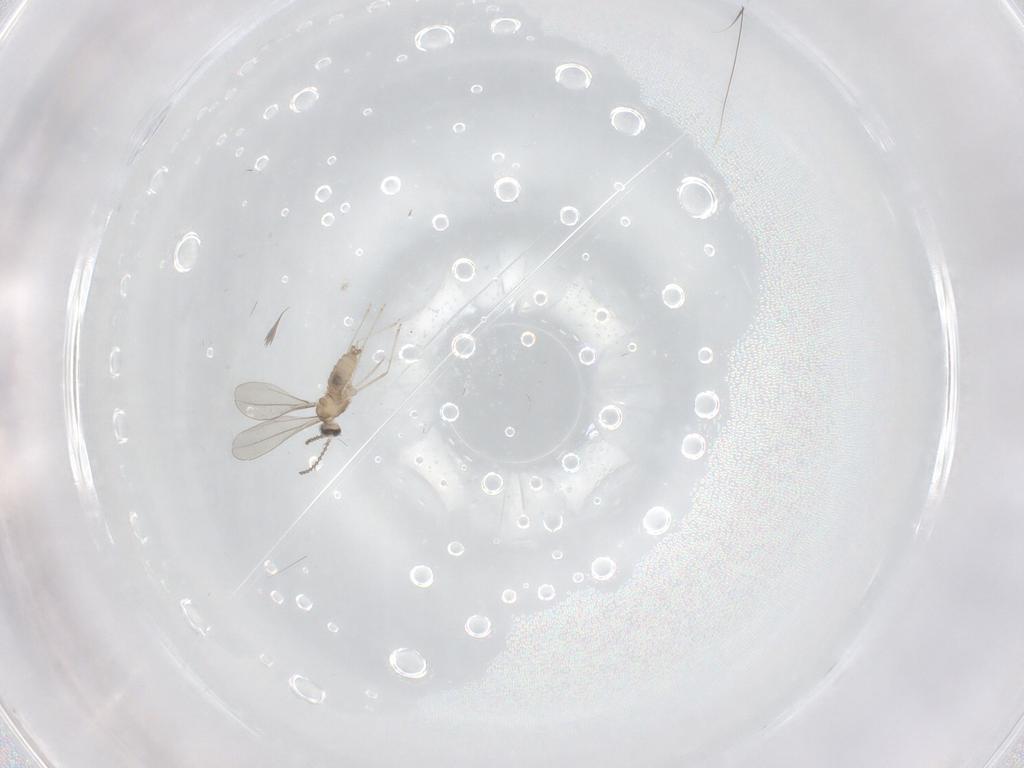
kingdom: Animalia
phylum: Arthropoda
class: Insecta
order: Diptera
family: Cecidomyiidae
